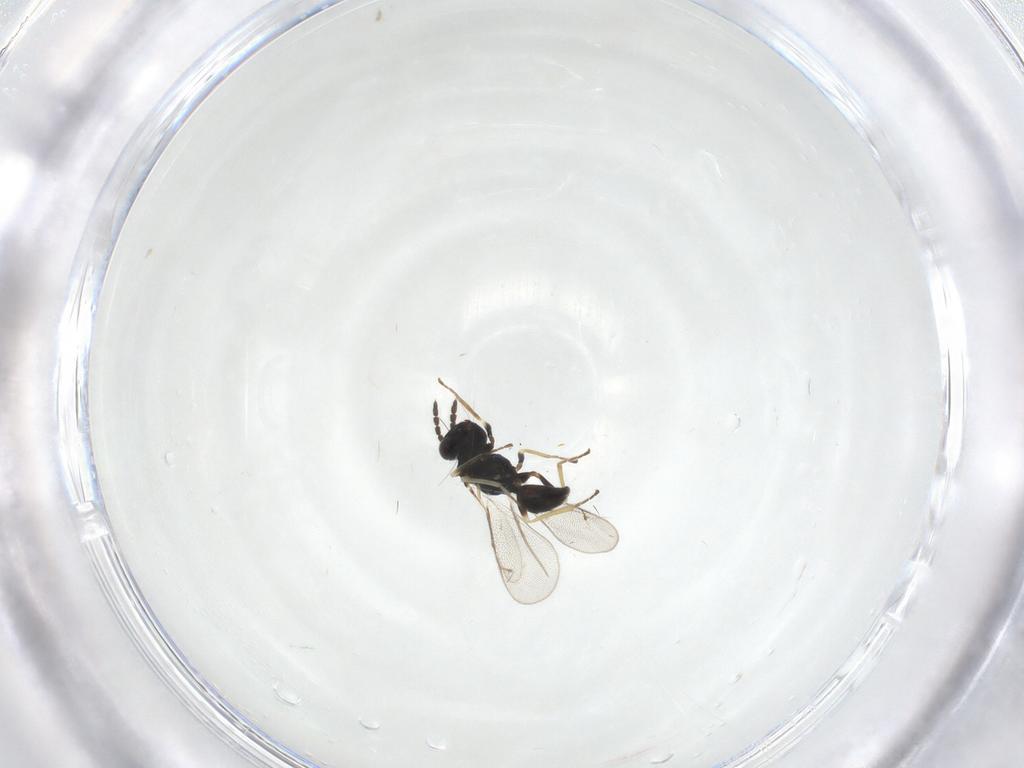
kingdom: Animalia
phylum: Arthropoda
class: Insecta
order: Hymenoptera
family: Eulophidae
